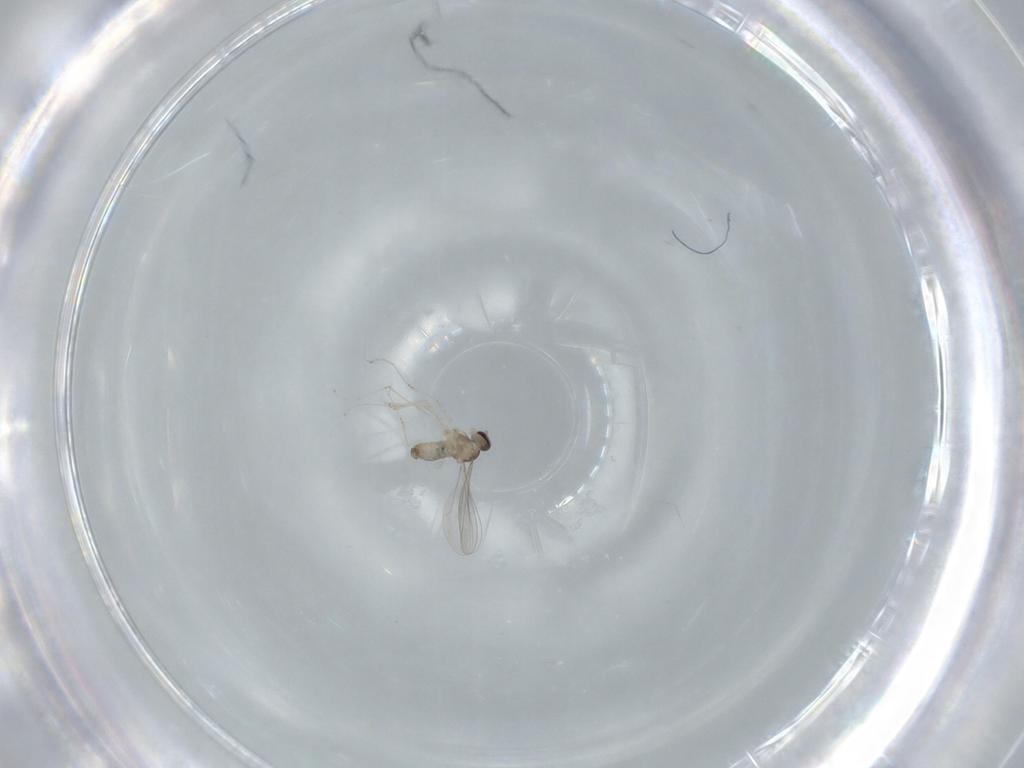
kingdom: Animalia
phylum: Arthropoda
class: Insecta
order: Diptera
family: Cecidomyiidae
